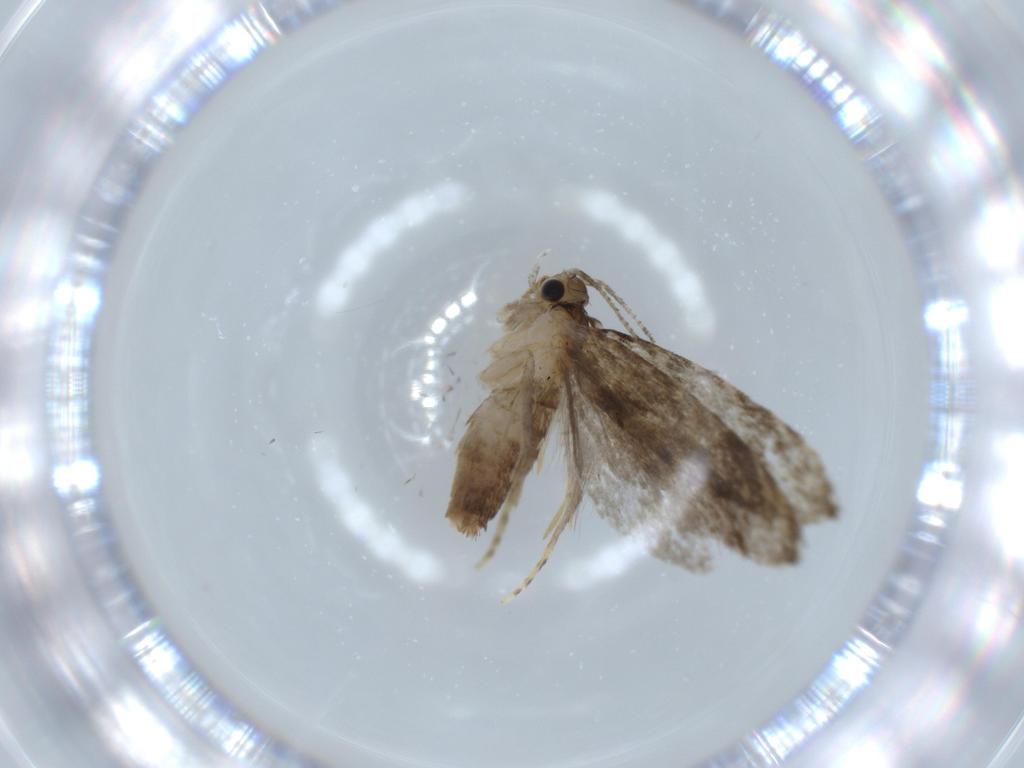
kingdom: Animalia
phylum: Arthropoda
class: Insecta
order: Lepidoptera
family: Tineidae
